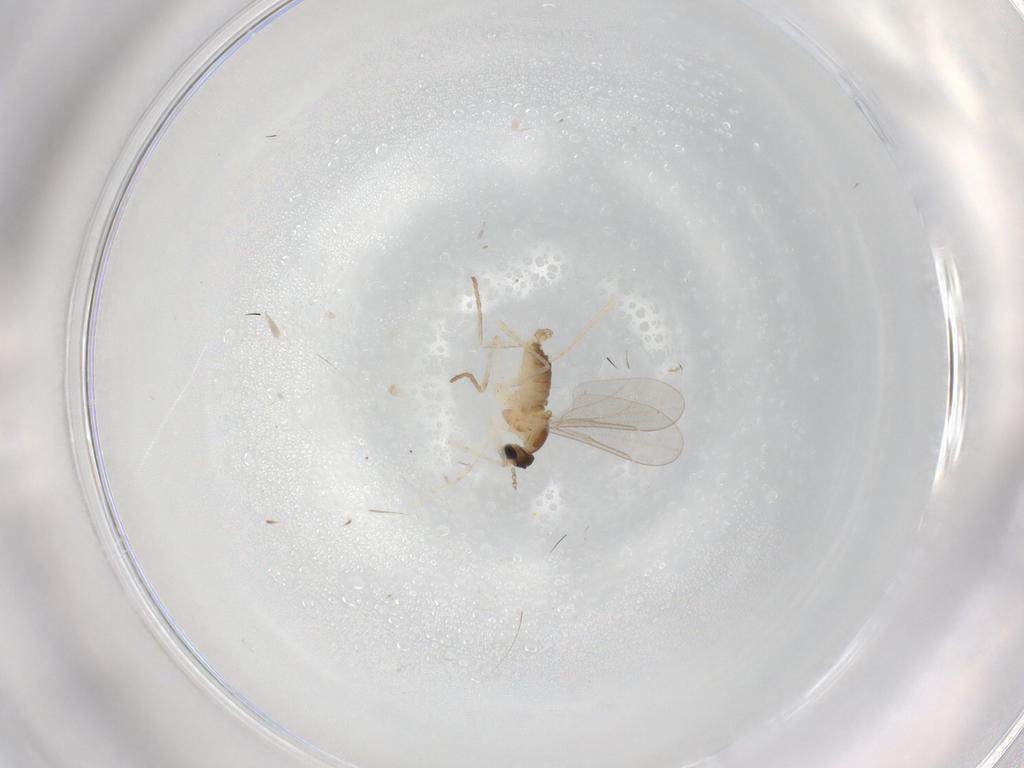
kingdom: Animalia
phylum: Arthropoda
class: Insecta
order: Diptera
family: Cecidomyiidae
